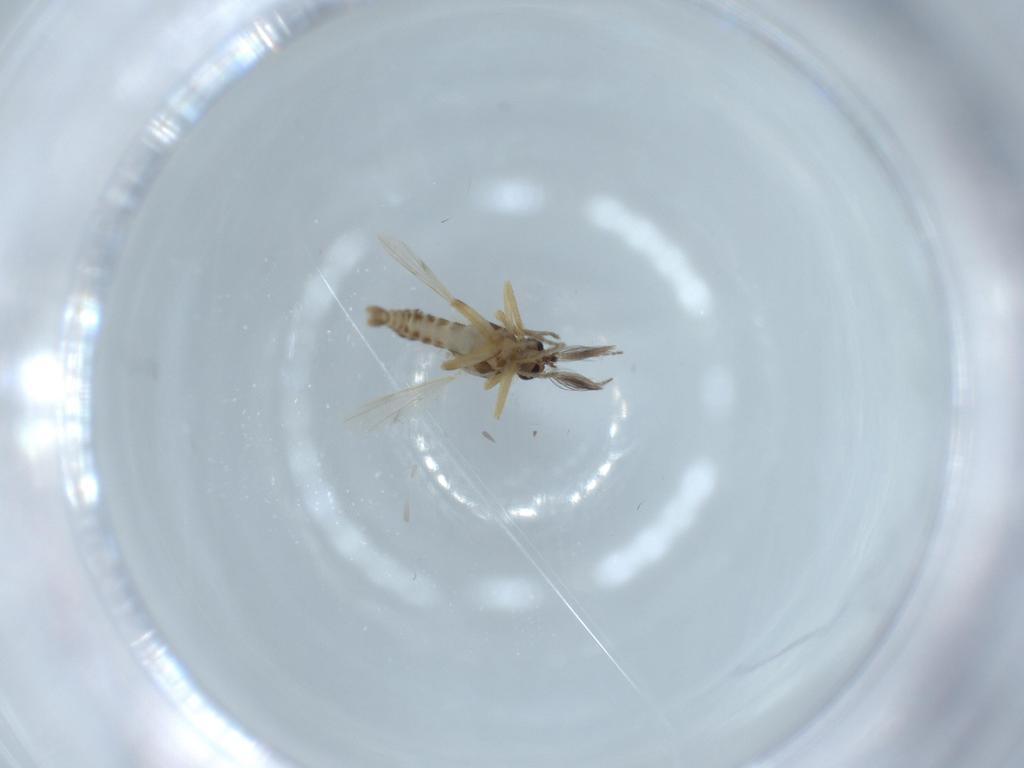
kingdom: Animalia
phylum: Arthropoda
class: Insecta
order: Diptera
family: Ceratopogonidae
